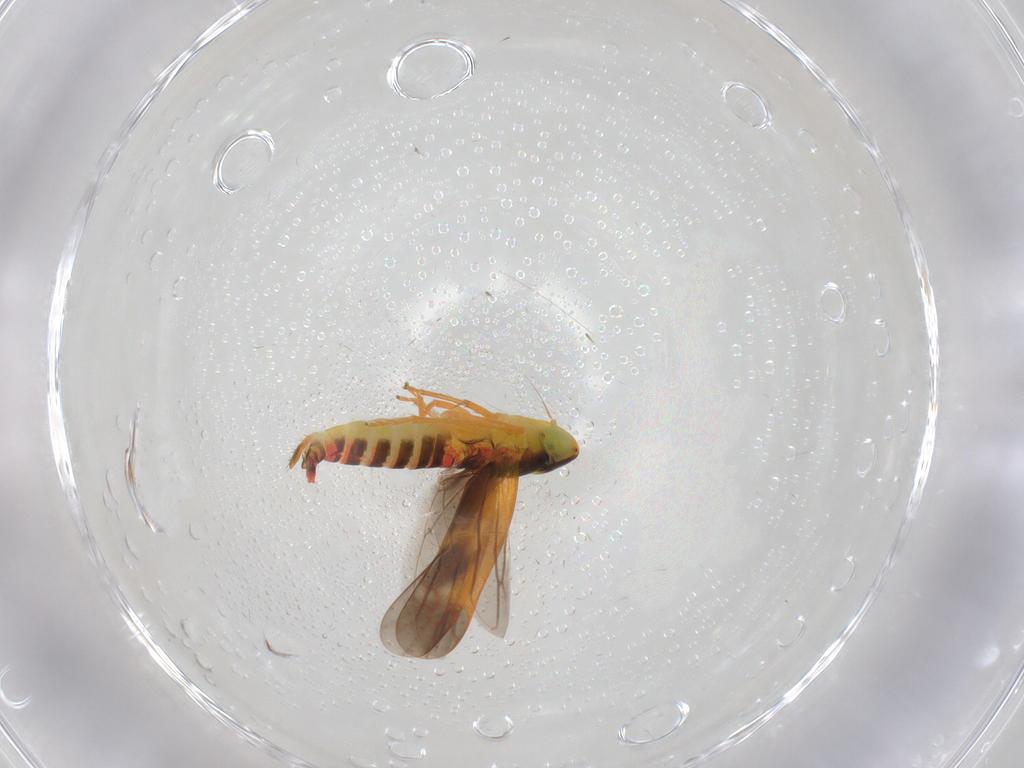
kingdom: Animalia
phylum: Arthropoda
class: Insecta
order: Hemiptera
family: Cicadellidae
